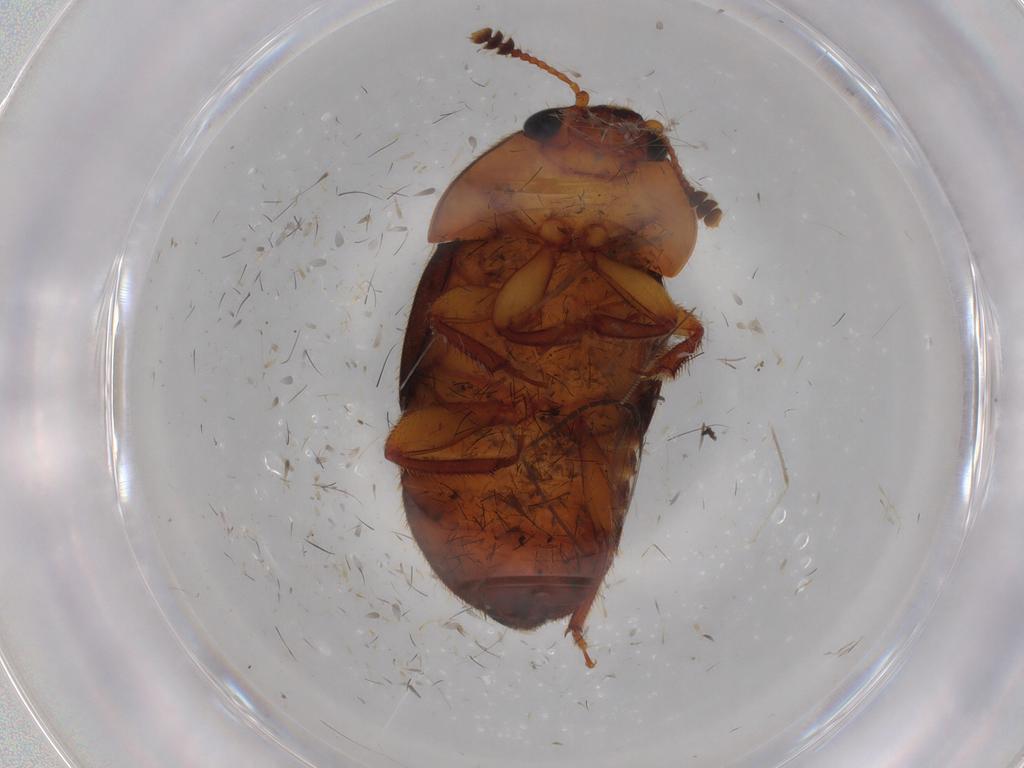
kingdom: Animalia
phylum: Arthropoda
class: Insecta
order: Coleoptera
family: Nitidulidae
